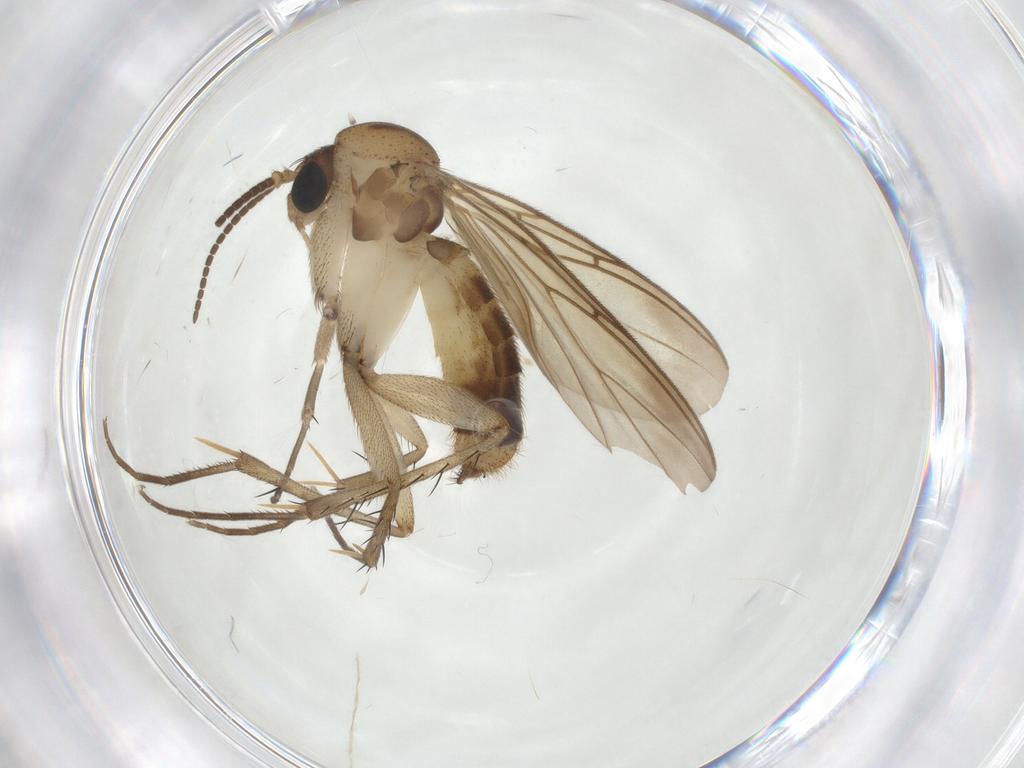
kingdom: Animalia
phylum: Arthropoda
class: Insecta
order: Diptera
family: Mycetophilidae
